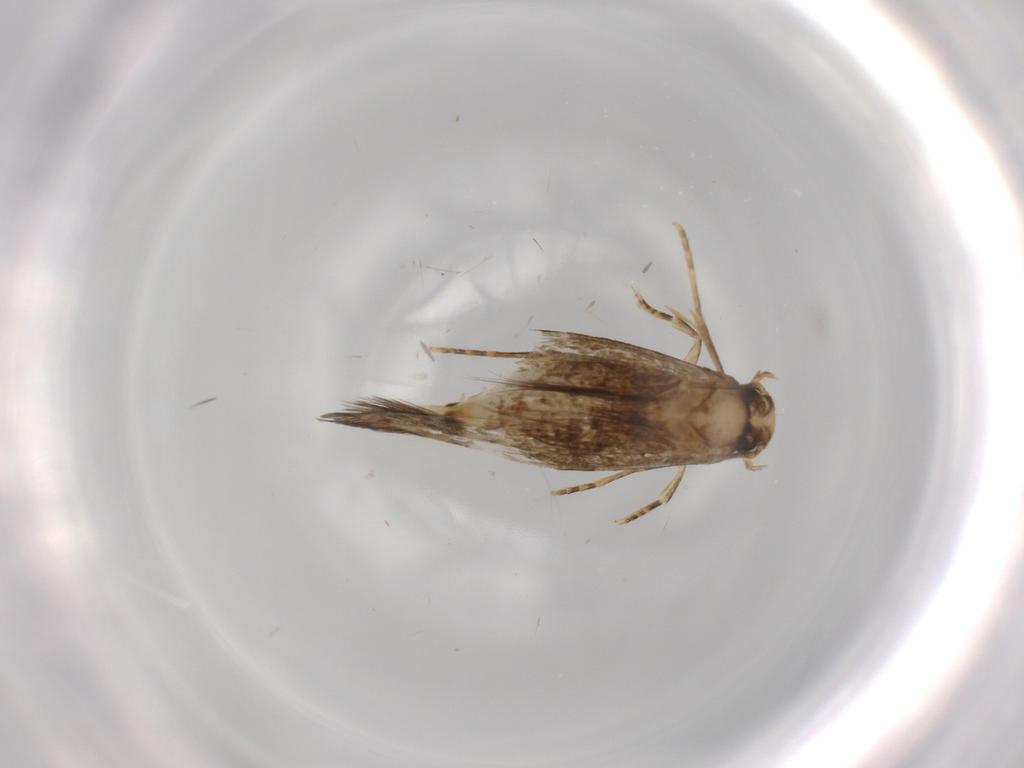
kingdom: Animalia
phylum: Arthropoda
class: Insecta
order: Lepidoptera
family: Tineidae
